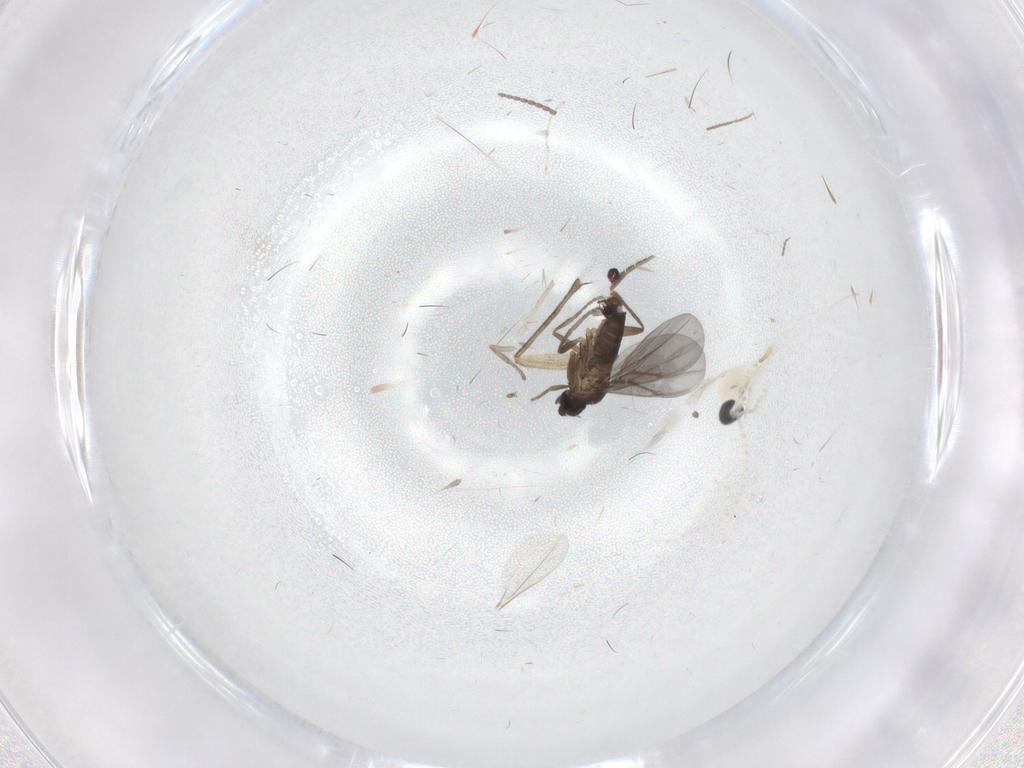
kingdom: Animalia
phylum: Arthropoda
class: Insecta
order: Diptera
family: Phoridae
